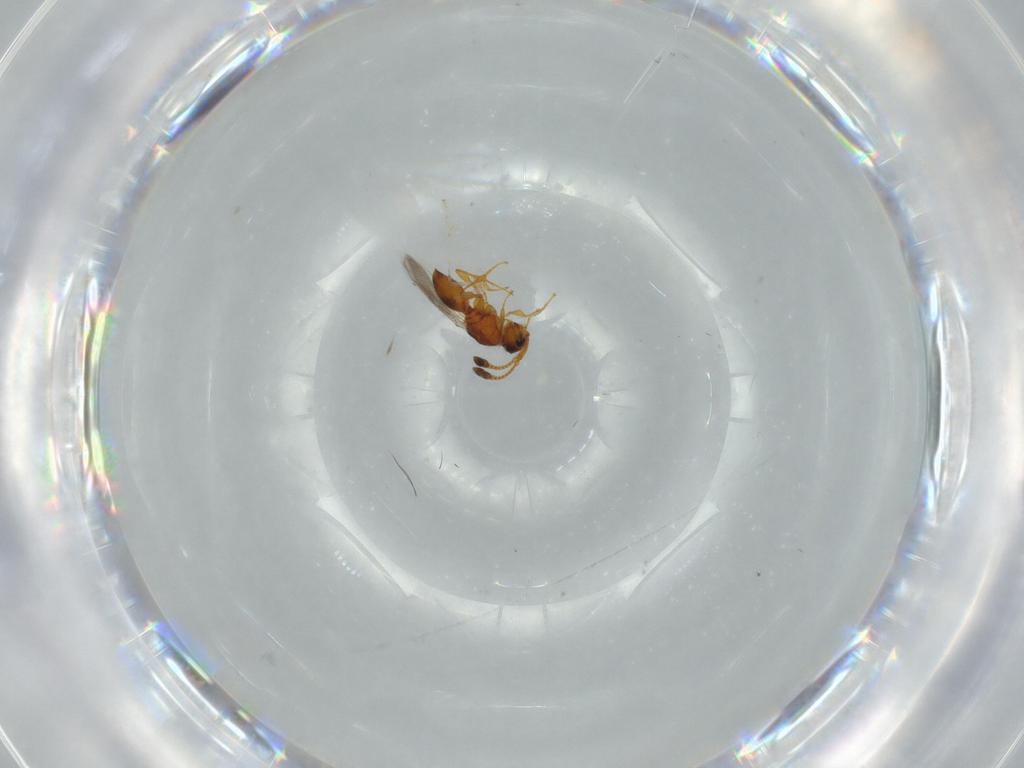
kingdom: Animalia
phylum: Arthropoda
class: Insecta
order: Hymenoptera
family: Diapriidae
